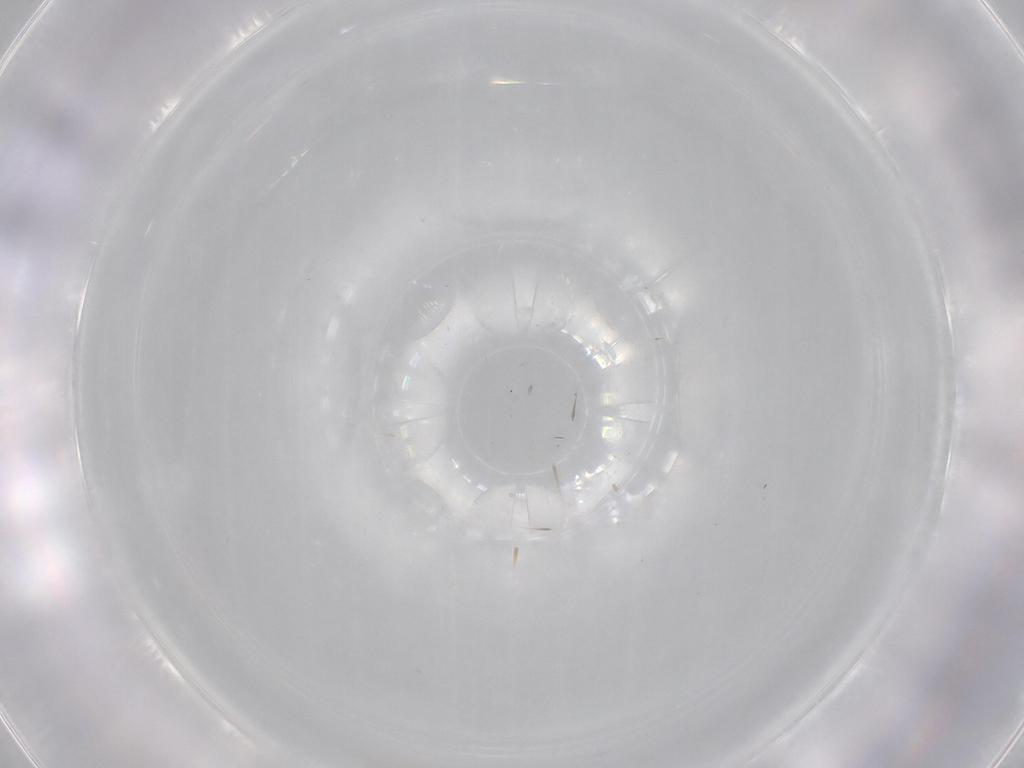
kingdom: Animalia
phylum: Arthropoda
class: Insecta
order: Diptera
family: Cecidomyiidae
